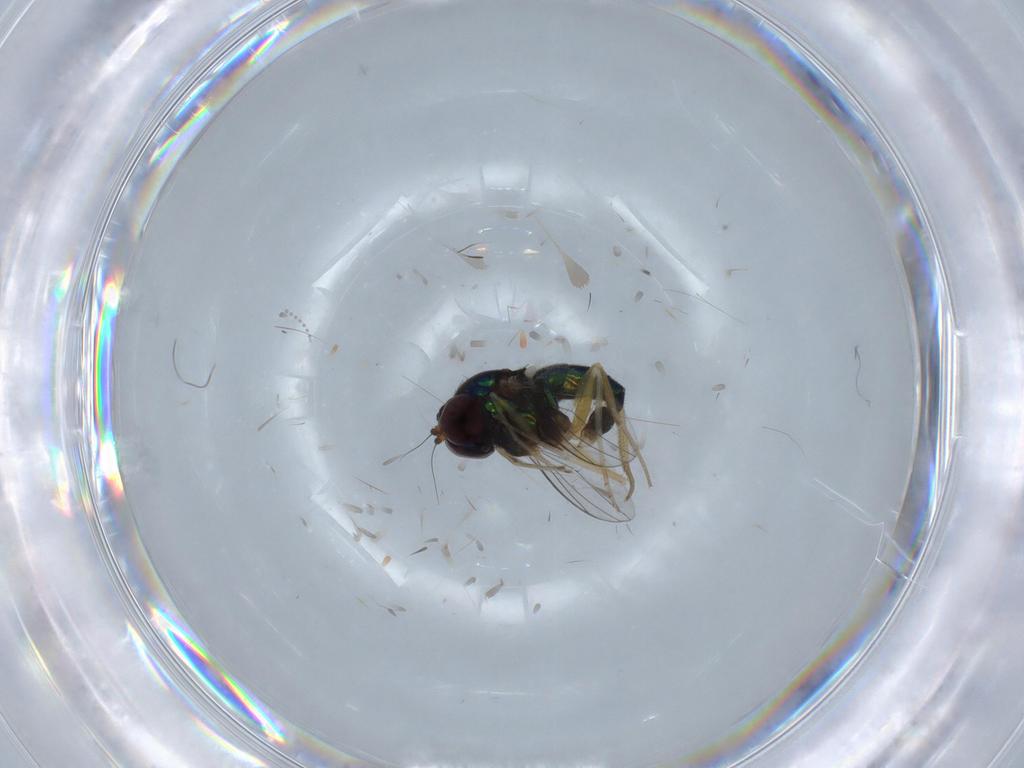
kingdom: Animalia
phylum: Arthropoda
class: Insecta
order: Diptera
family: Dolichopodidae
